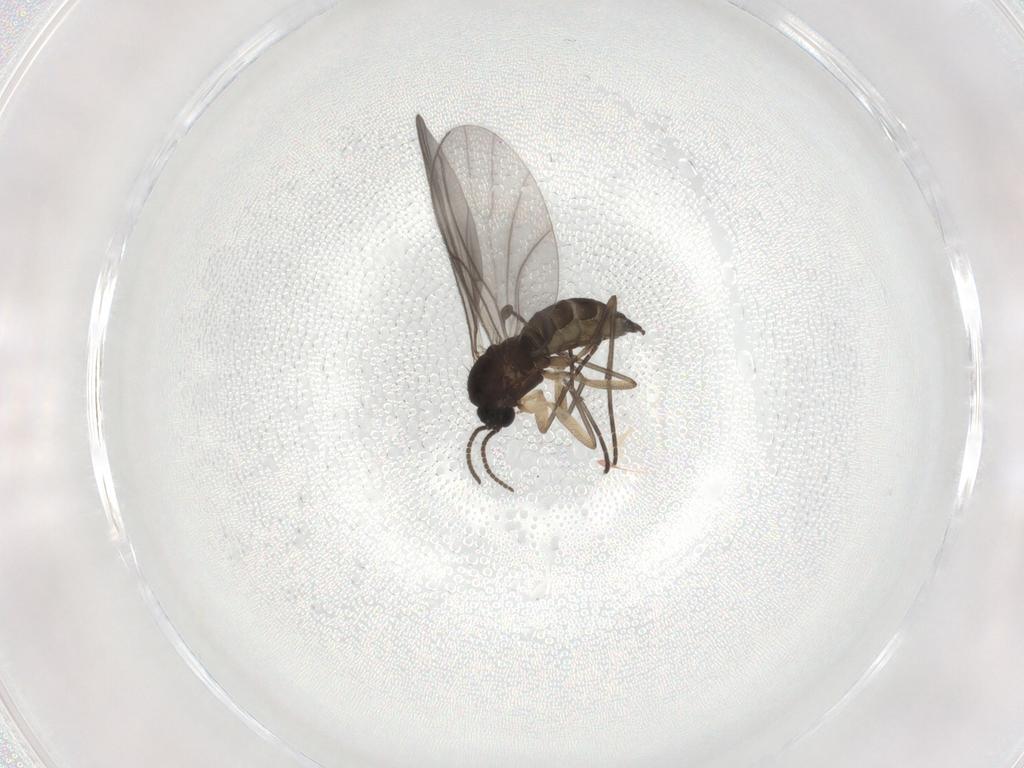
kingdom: Animalia
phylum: Arthropoda
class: Insecta
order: Diptera
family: Sciaridae
